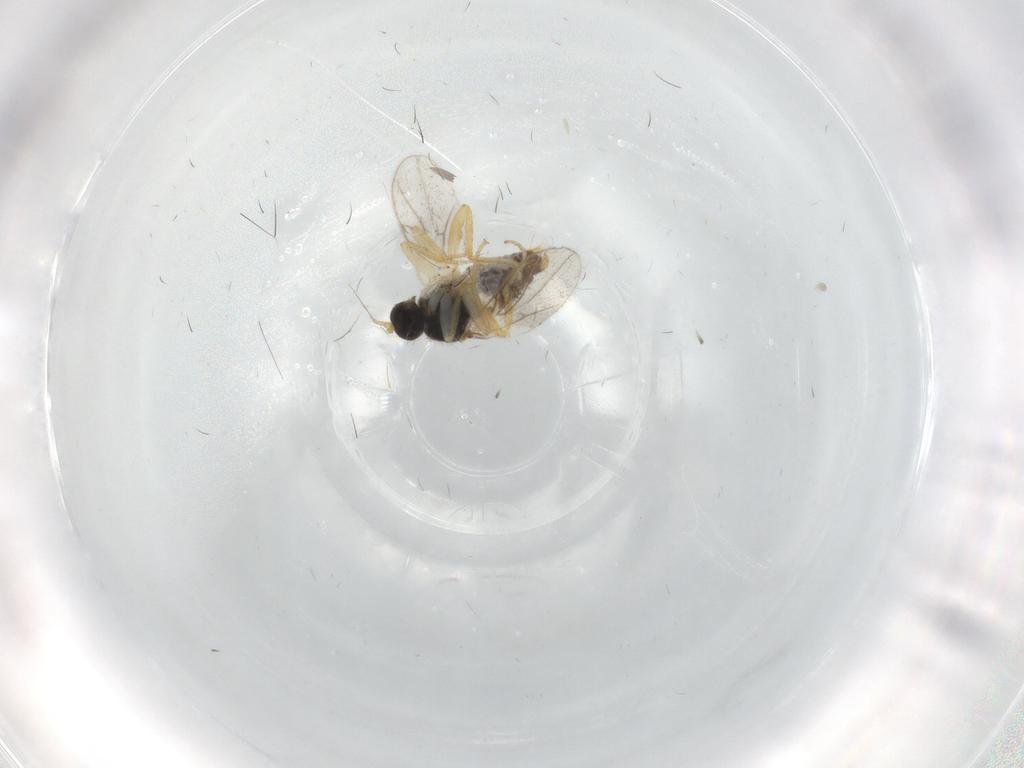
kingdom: Animalia
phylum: Arthropoda
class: Insecta
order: Diptera
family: Hybotidae
